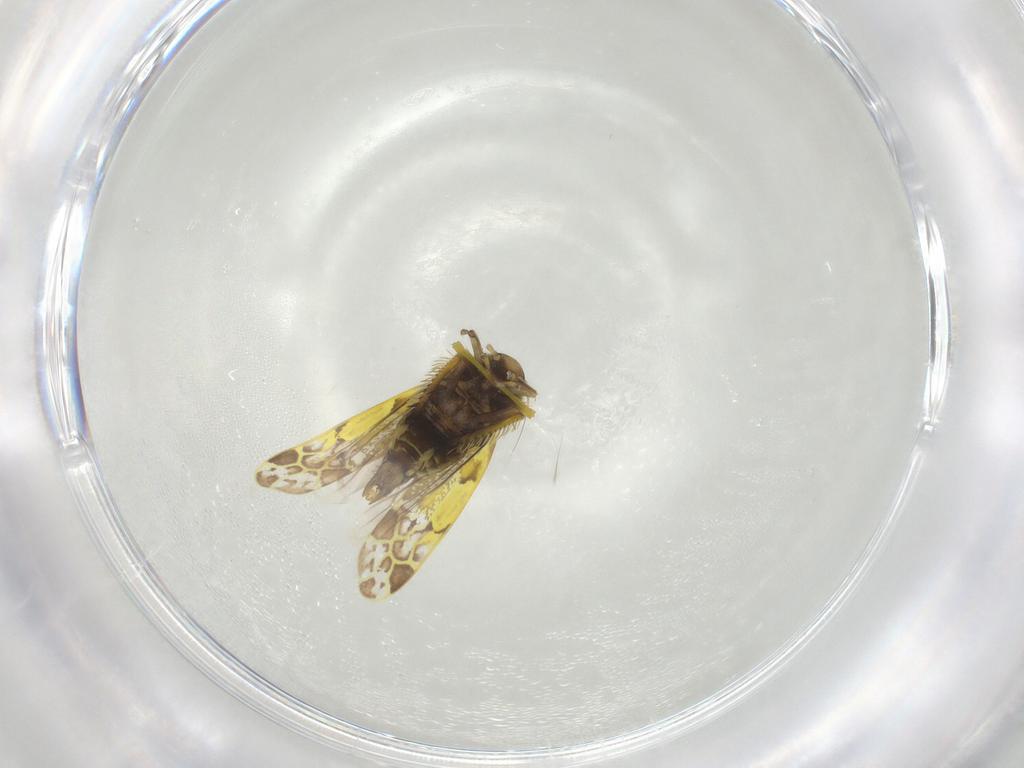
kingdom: Animalia
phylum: Arthropoda
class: Insecta
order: Hemiptera
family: Cicadellidae
